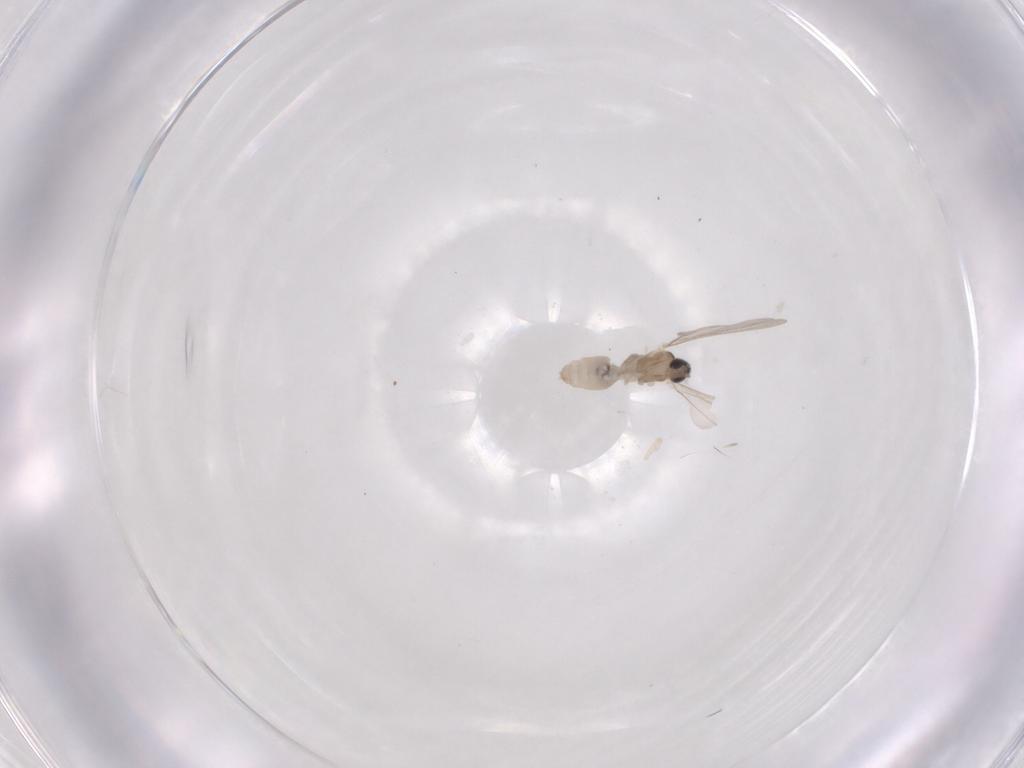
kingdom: Animalia
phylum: Arthropoda
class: Insecta
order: Diptera
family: Cecidomyiidae
